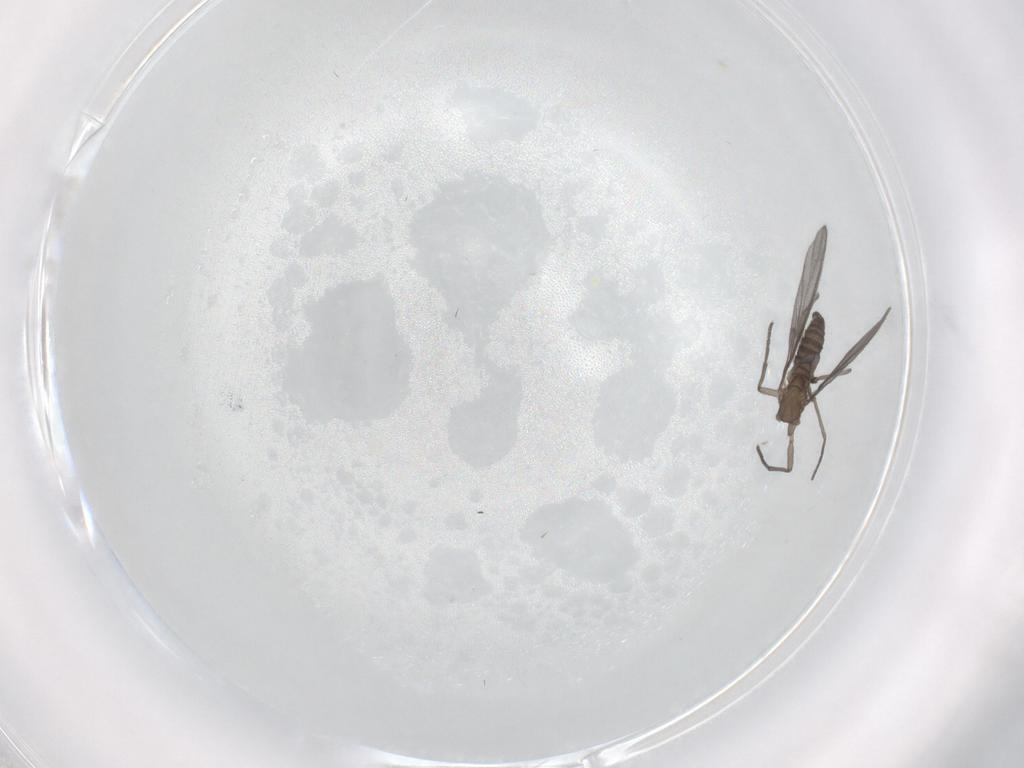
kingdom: Animalia
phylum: Arthropoda
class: Insecta
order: Diptera
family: Sciaridae
